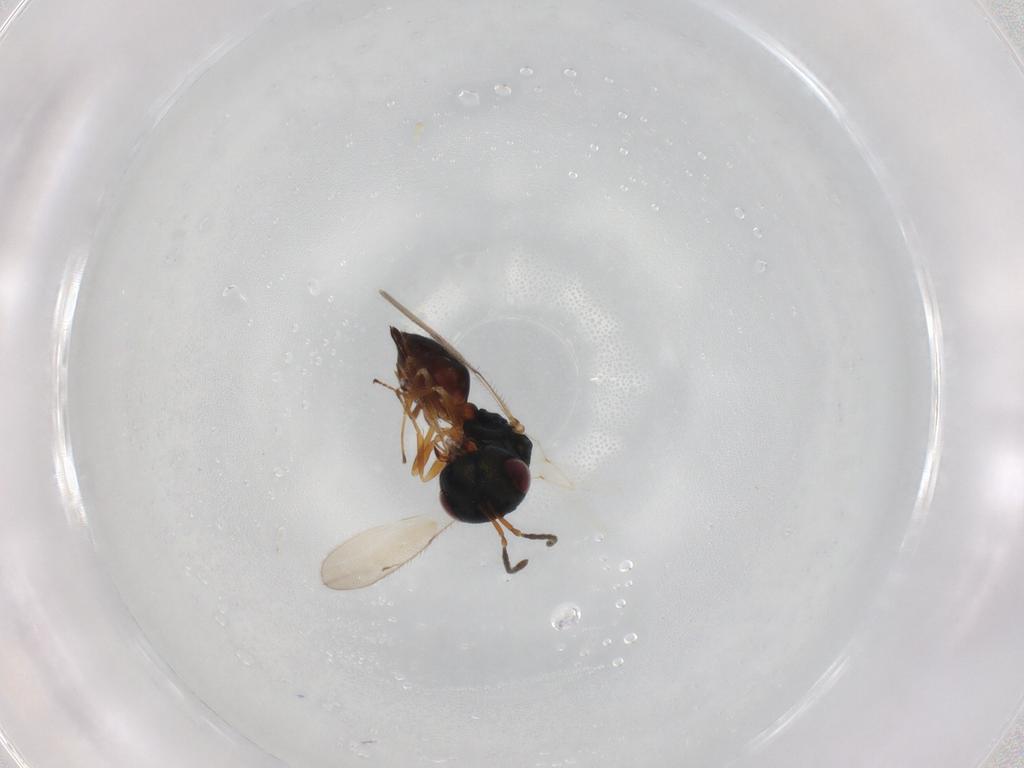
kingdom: Animalia
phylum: Arthropoda
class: Insecta
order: Hymenoptera
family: Pteromalidae
